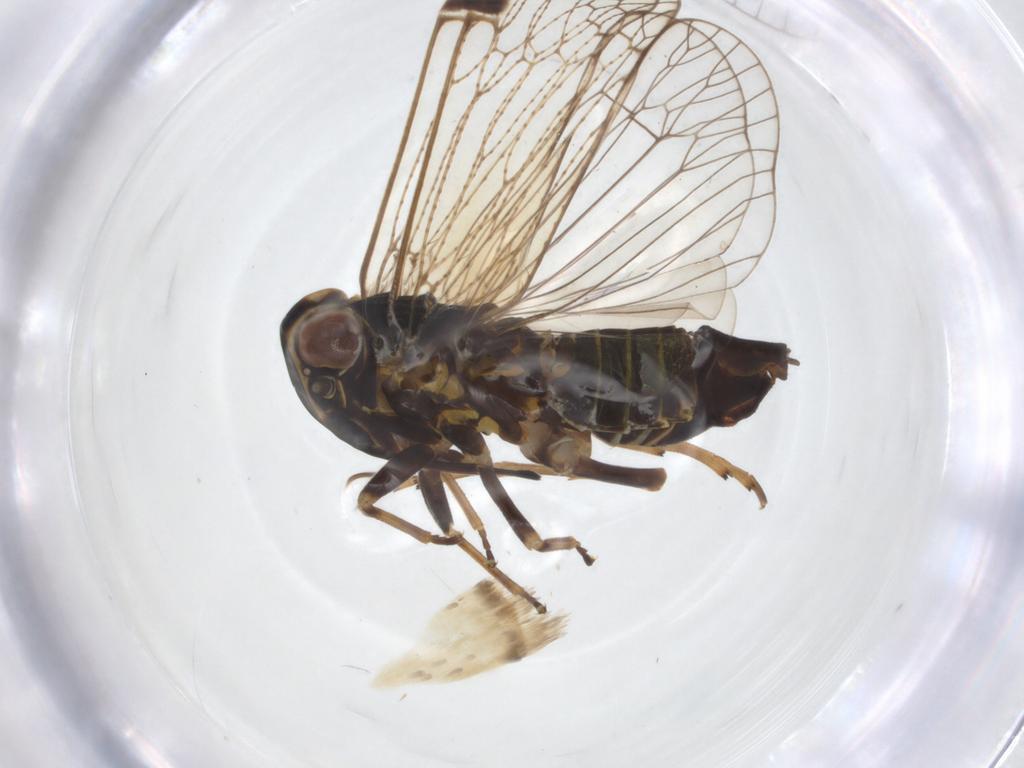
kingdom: Animalia
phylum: Arthropoda
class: Insecta
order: Hemiptera
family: Cixiidae
